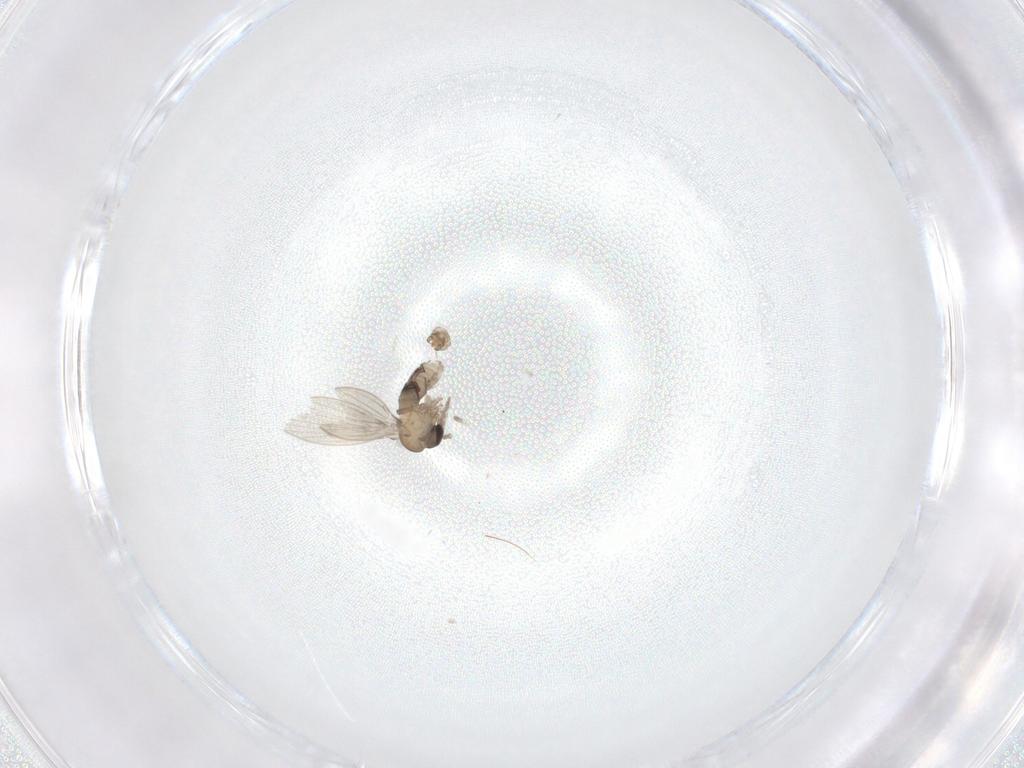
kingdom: Animalia
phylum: Arthropoda
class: Insecta
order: Diptera
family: Psychodidae
